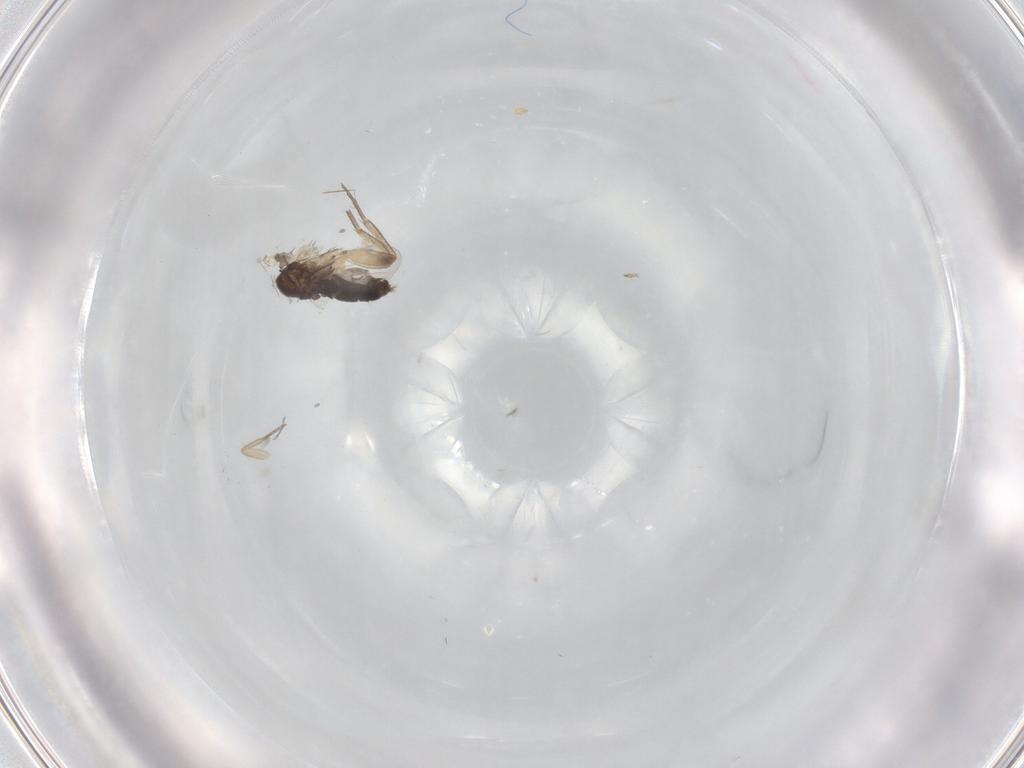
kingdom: Animalia
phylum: Arthropoda
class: Insecta
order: Diptera
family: Phoridae
